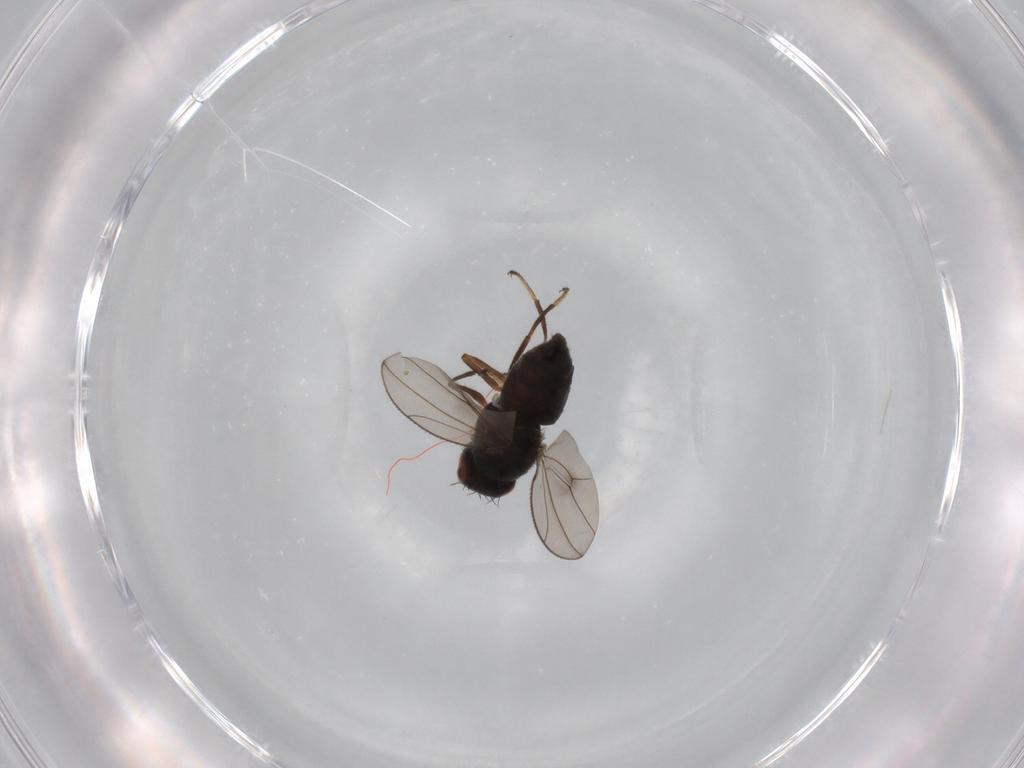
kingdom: Animalia
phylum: Arthropoda
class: Insecta
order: Diptera
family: Ephydridae
